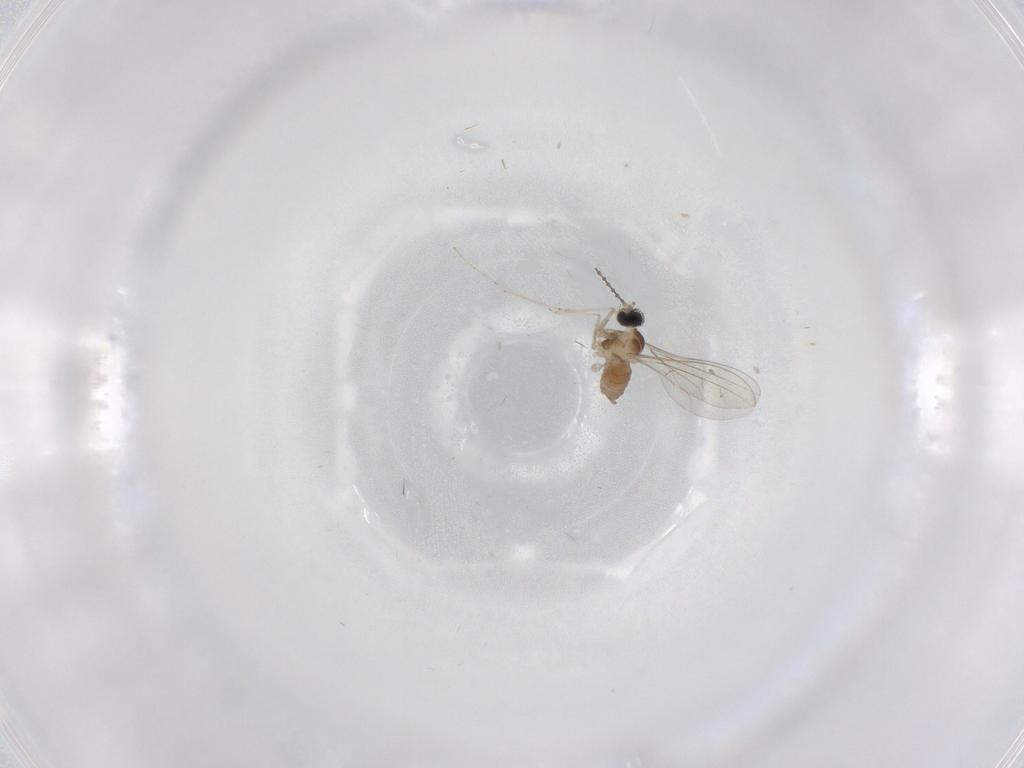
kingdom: Animalia
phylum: Arthropoda
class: Insecta
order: Diptera
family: Cecidomyiidae
